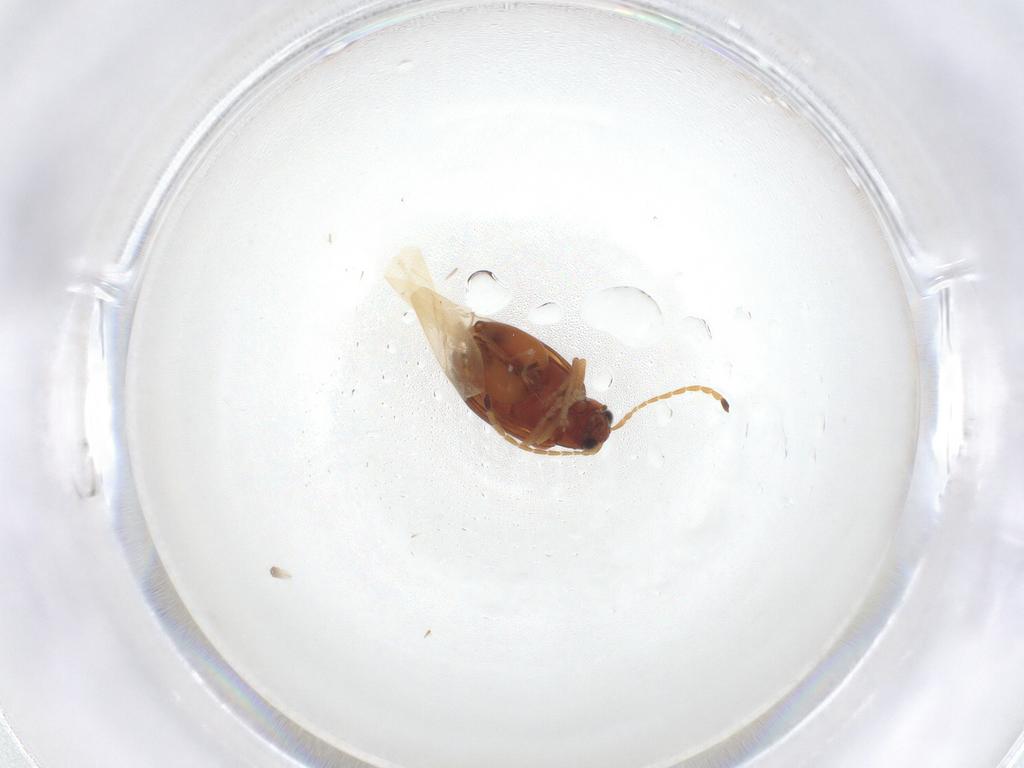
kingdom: Animalia
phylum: Arthropoda
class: Insecta
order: Coleoptera
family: Chrysomelidae
